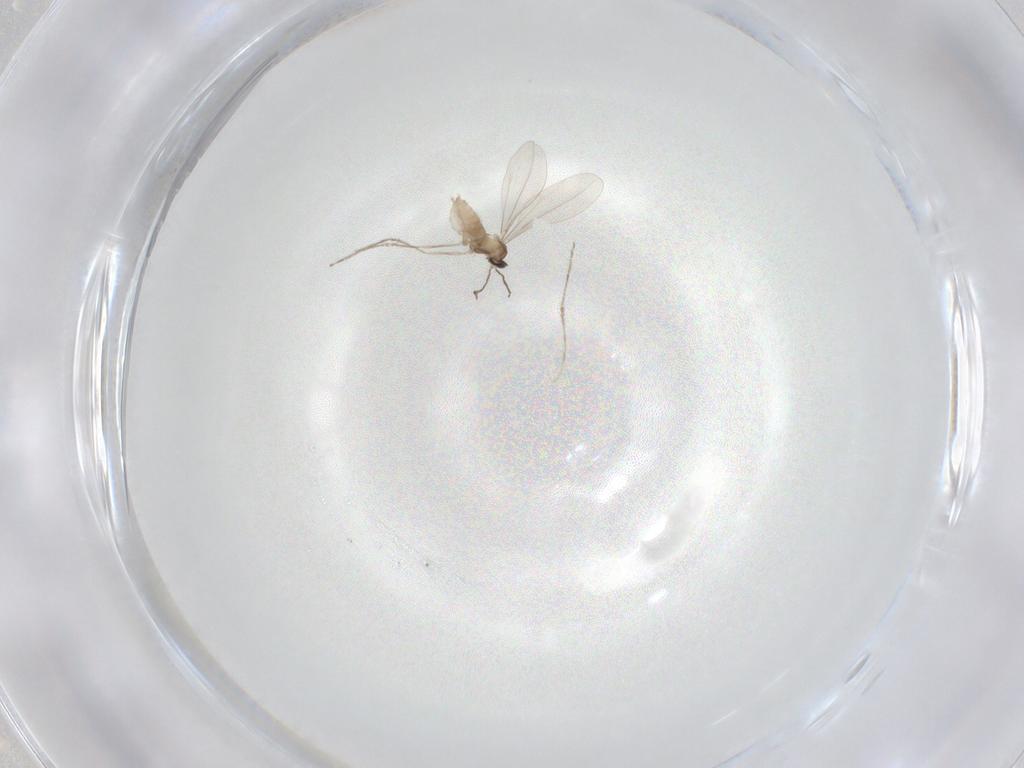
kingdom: Animalia
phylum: Arthropoda
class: Insecta
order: Diptera
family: Cecidomyiidae
